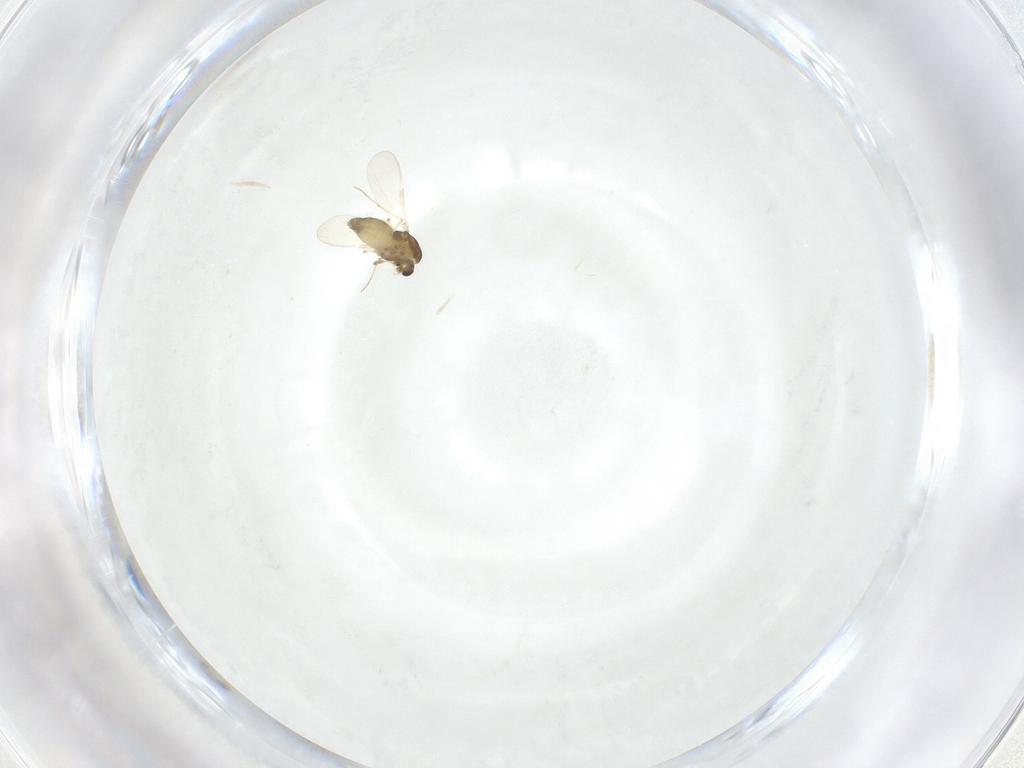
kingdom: Animalia
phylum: Arthropoda
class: Insecta
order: Diptera
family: Chironomidae
